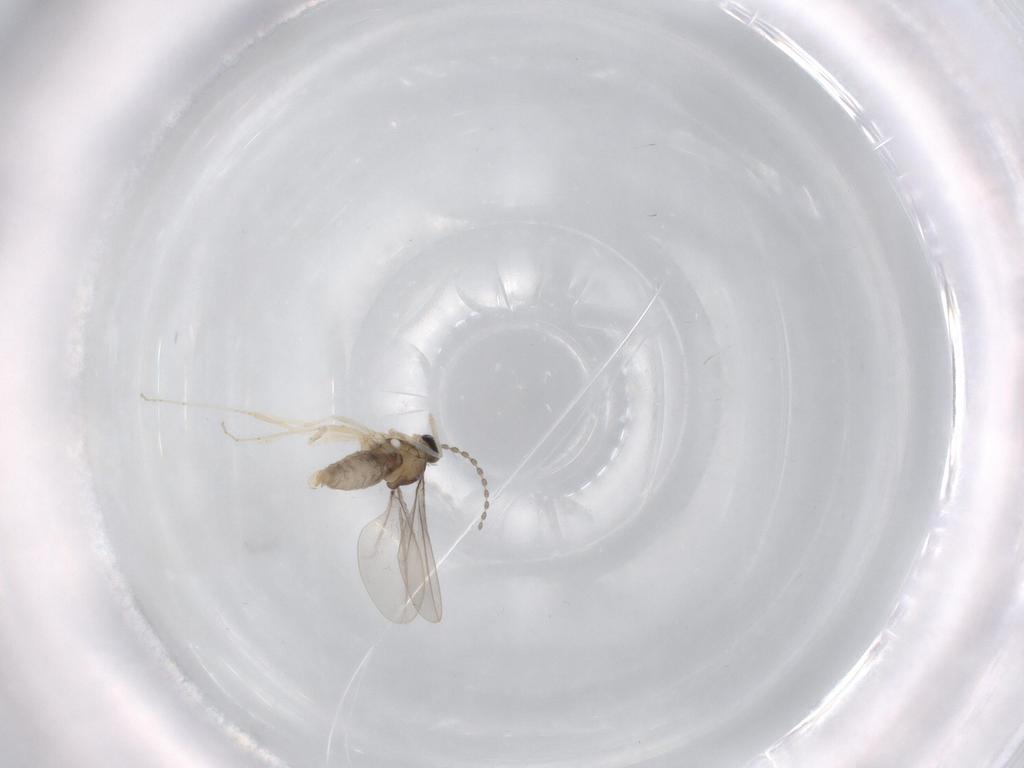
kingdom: Animalia
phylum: Arthropoda
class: Insecta
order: Diptera
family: Cecidomyiidae
